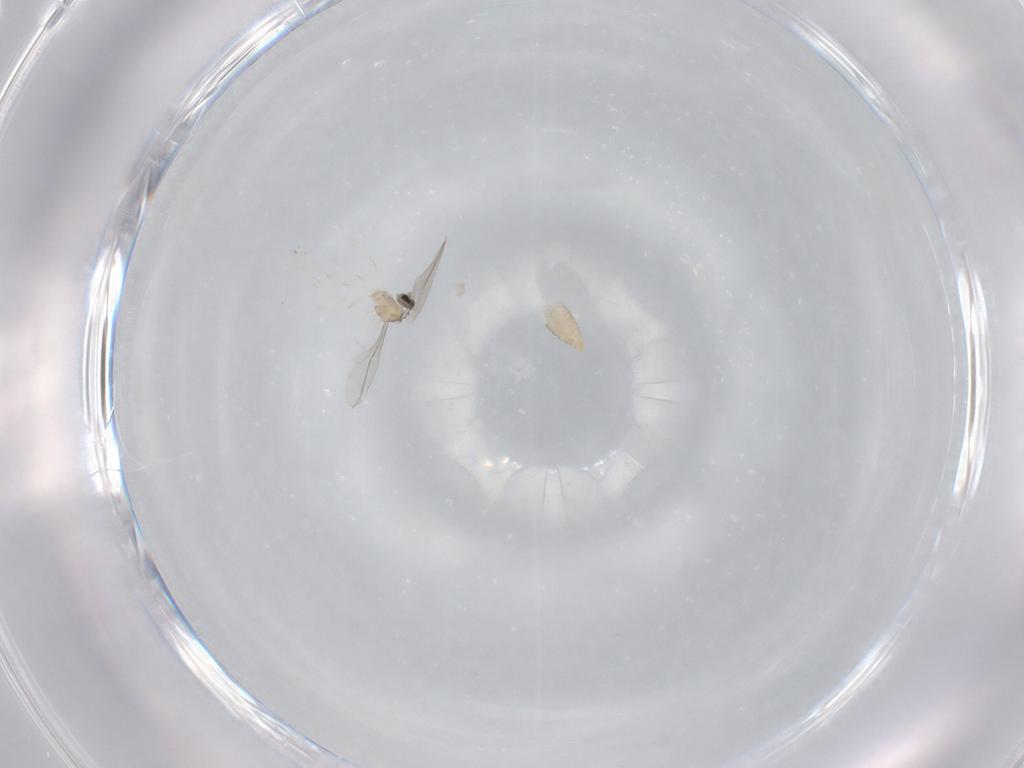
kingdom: Animalia
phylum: Arthropoda
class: Insecta
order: Diptera
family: Cecidomyiidae
